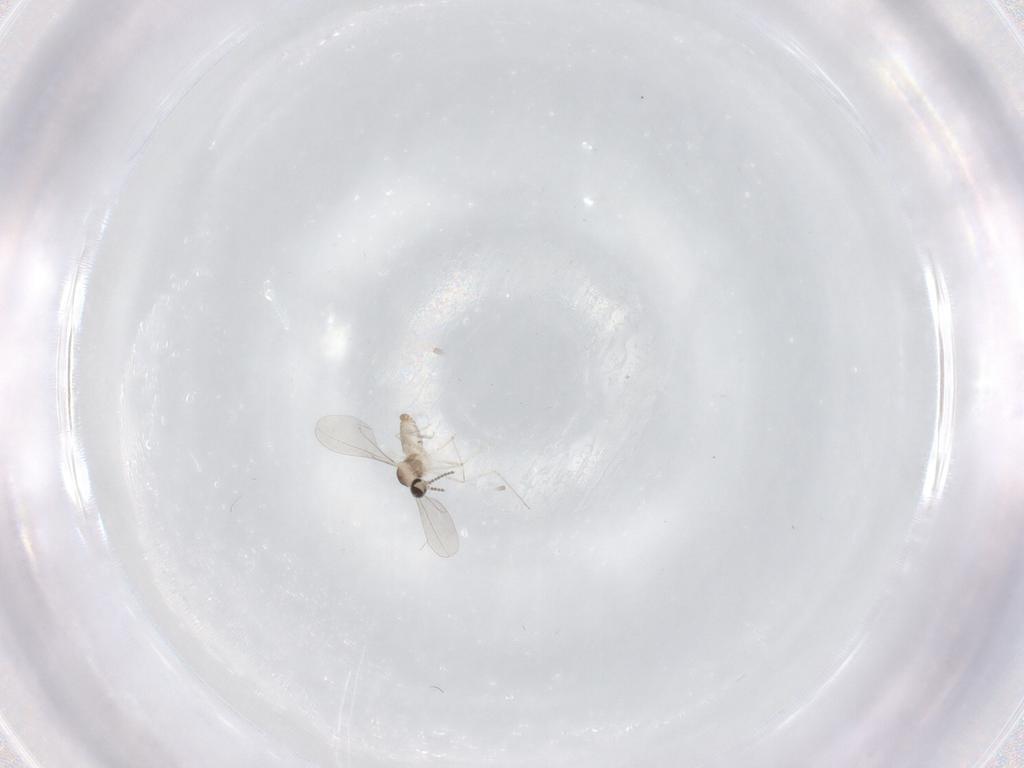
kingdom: Animalia
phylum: Arthropoda
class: Insecta
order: Diptera
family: Cecidomyiidae
